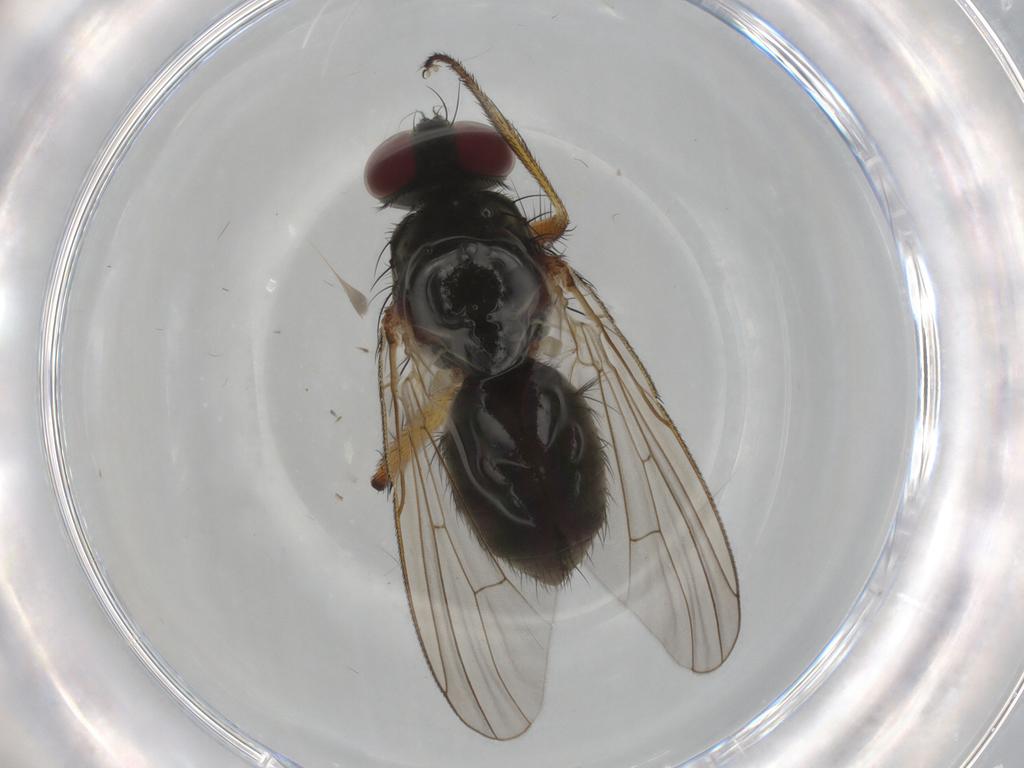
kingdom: Animalia
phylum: Arthropoda
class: Insecta
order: Diptera
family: Muscidae
